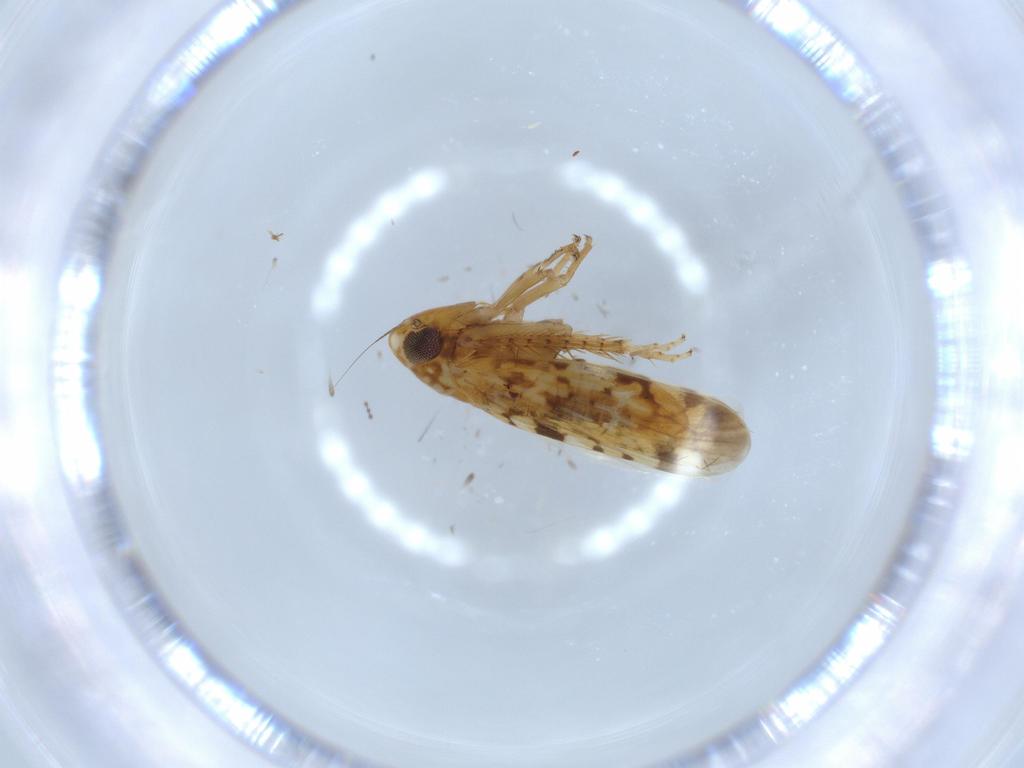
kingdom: Animalia
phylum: Arthropoda
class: Insecta
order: Hemiptera
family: Cicadellidae
